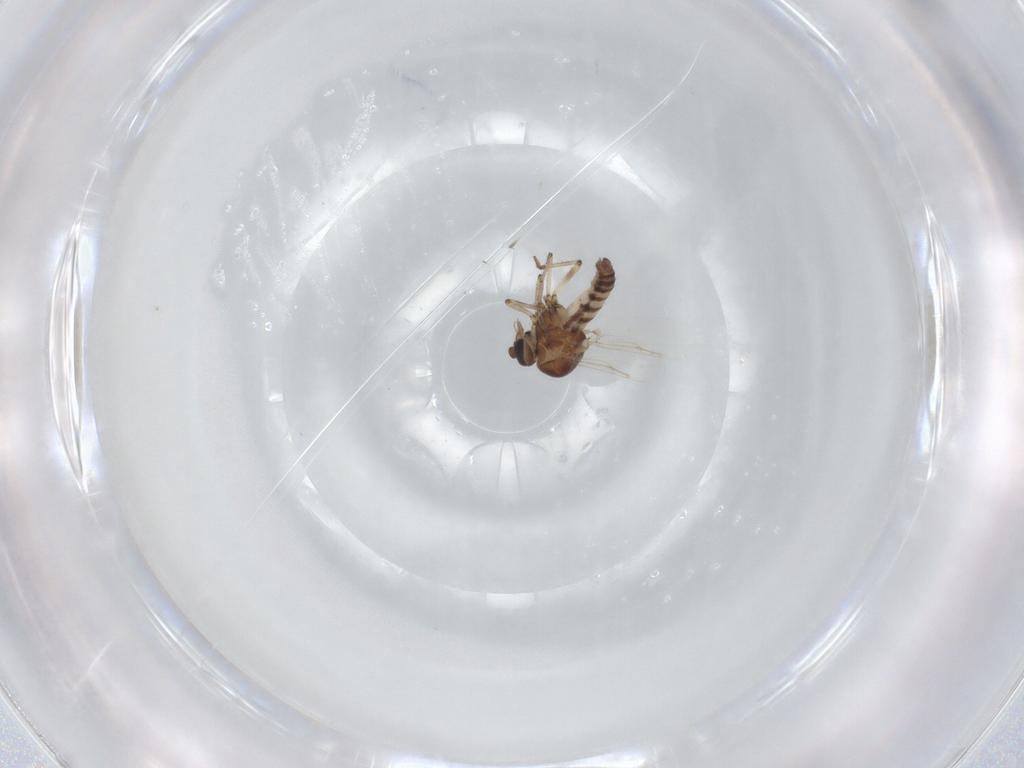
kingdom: Animalia
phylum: Arthropoda
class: Insecta
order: Diptera
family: Ceratopogonidae
